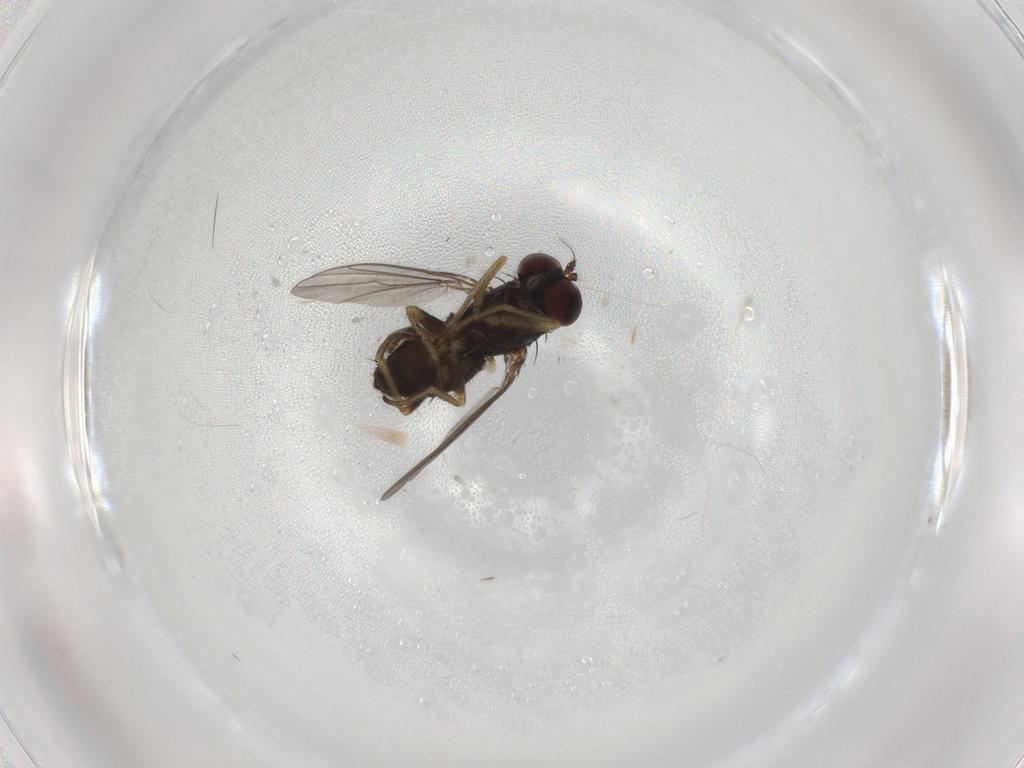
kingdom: Animalia
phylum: Arthropoda
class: Insecta
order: Diptera
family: Dolichopodidae
